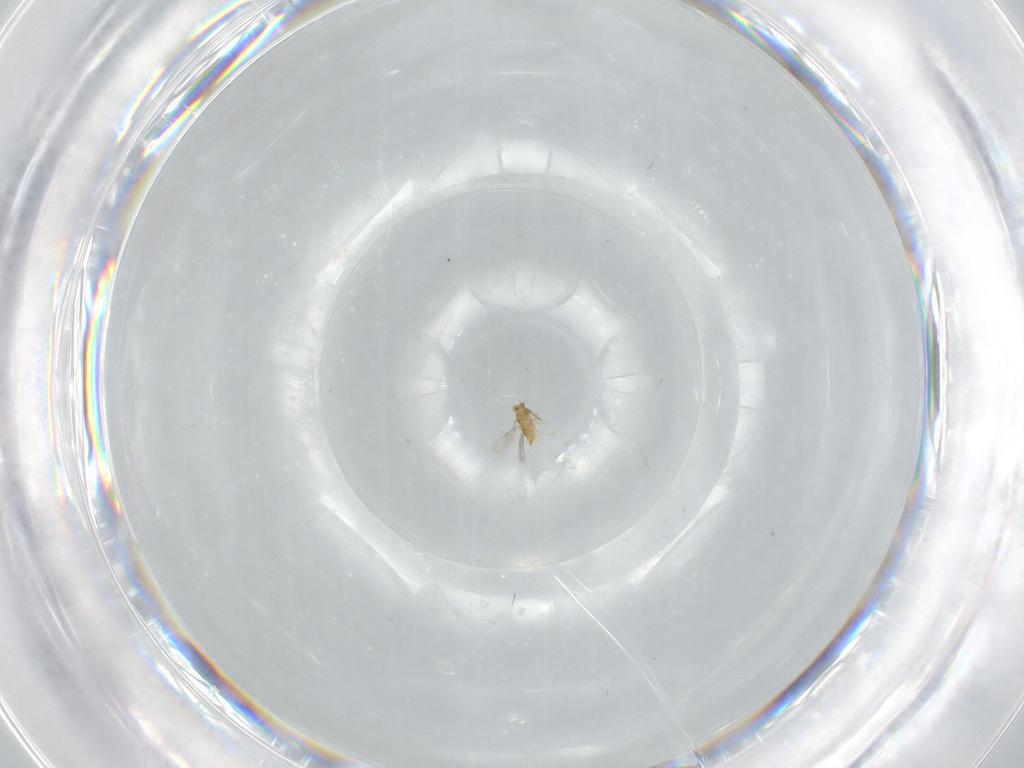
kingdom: Animalia
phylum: Arthropoda
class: Insecta
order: Hymenoptera
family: Aphelinidae
